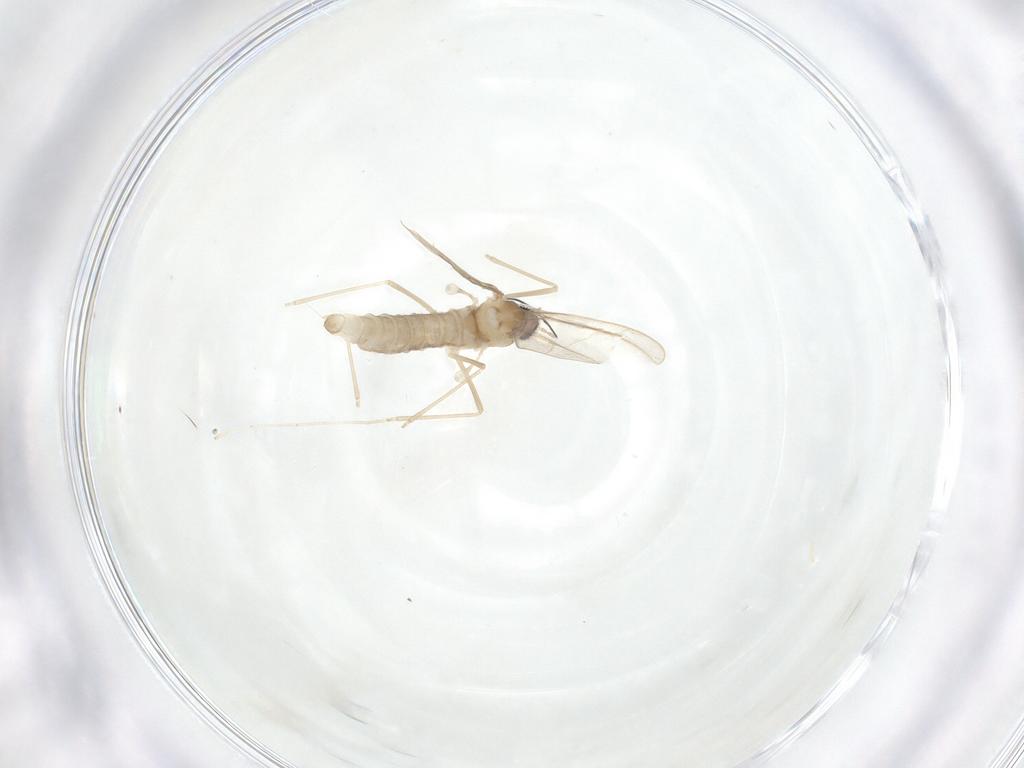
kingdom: Animalia
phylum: Arthropoda
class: Insecta
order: Diptera
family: Cecidomyiidae
